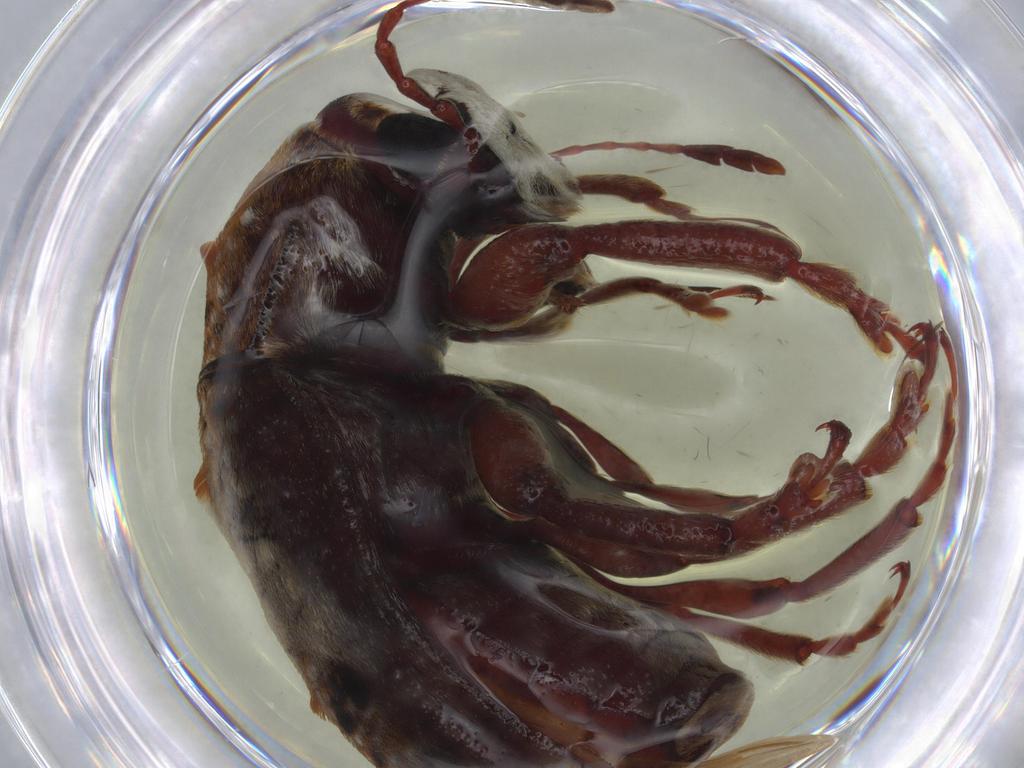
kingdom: Animalia
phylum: Arthropoda
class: Insecta
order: Coleoptera
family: Anthribidae
